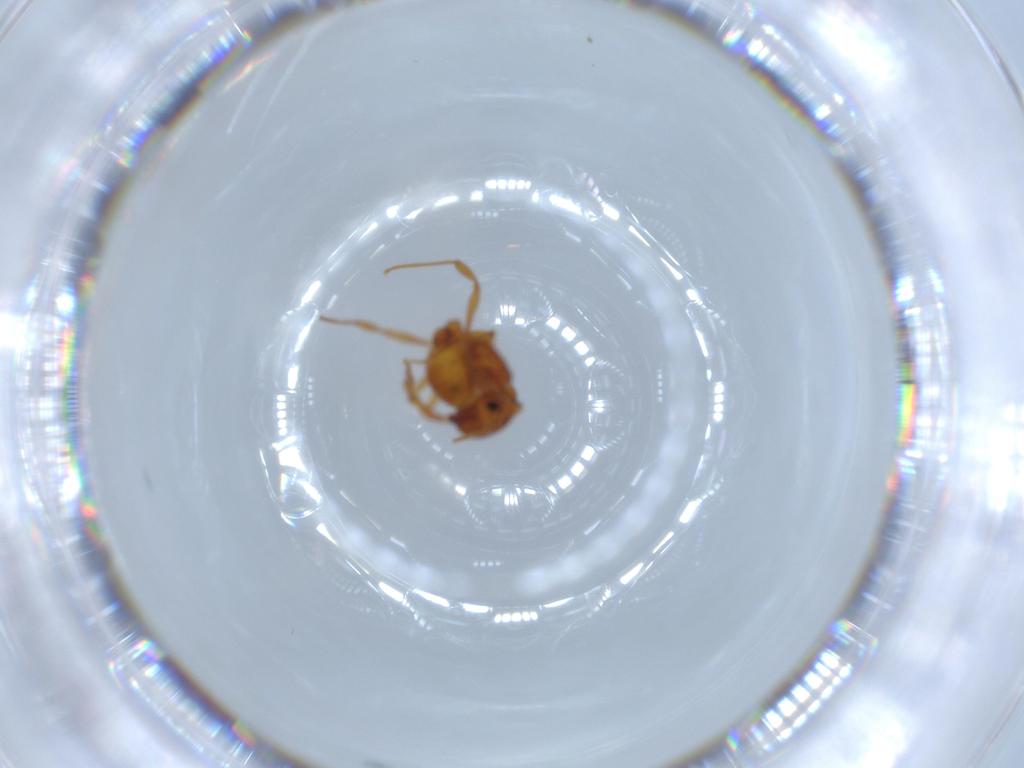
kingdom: Animalia
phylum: Arthropoda
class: Insecta
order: Hymenoptera
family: Formicidae
